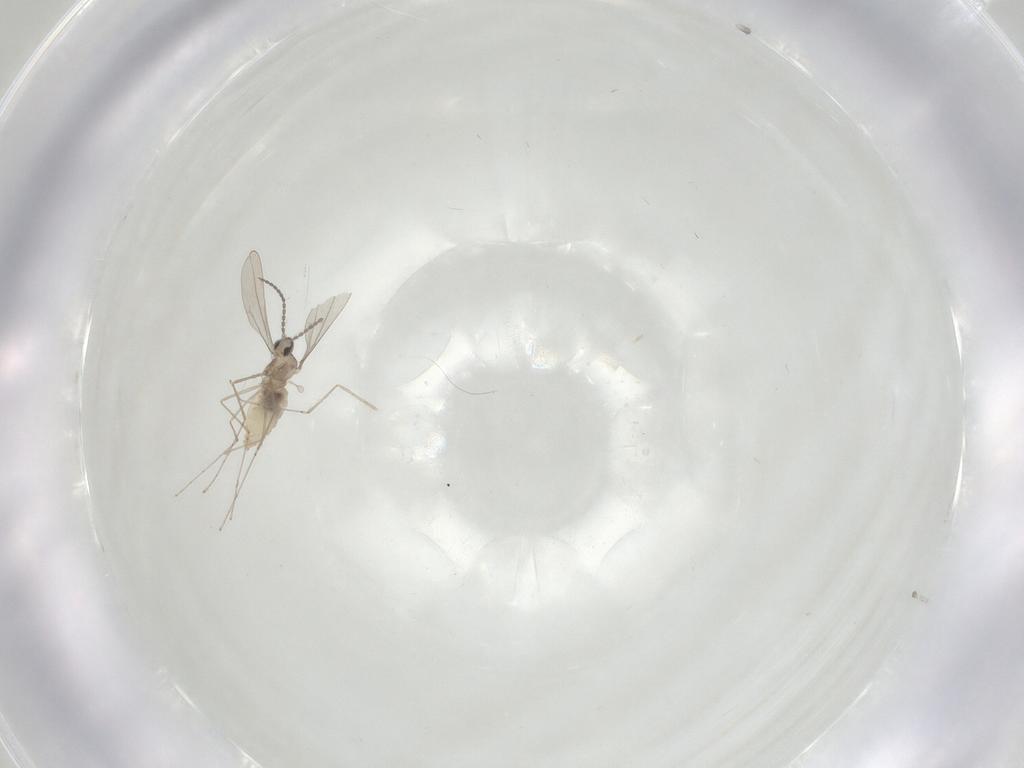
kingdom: Animalia
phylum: Arthropoda
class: Insecta
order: Diptera
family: Cecidomyiidae
